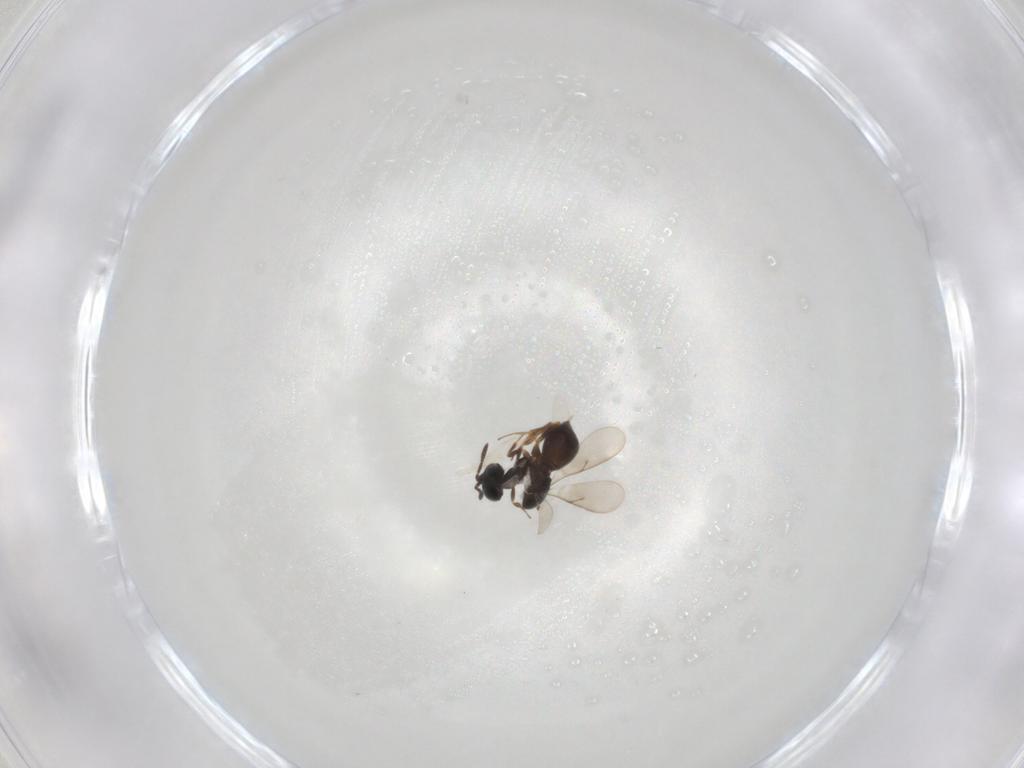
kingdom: Animalia
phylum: Arthropoda
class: Insecta
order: Hymenoptera
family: Scelionidae
